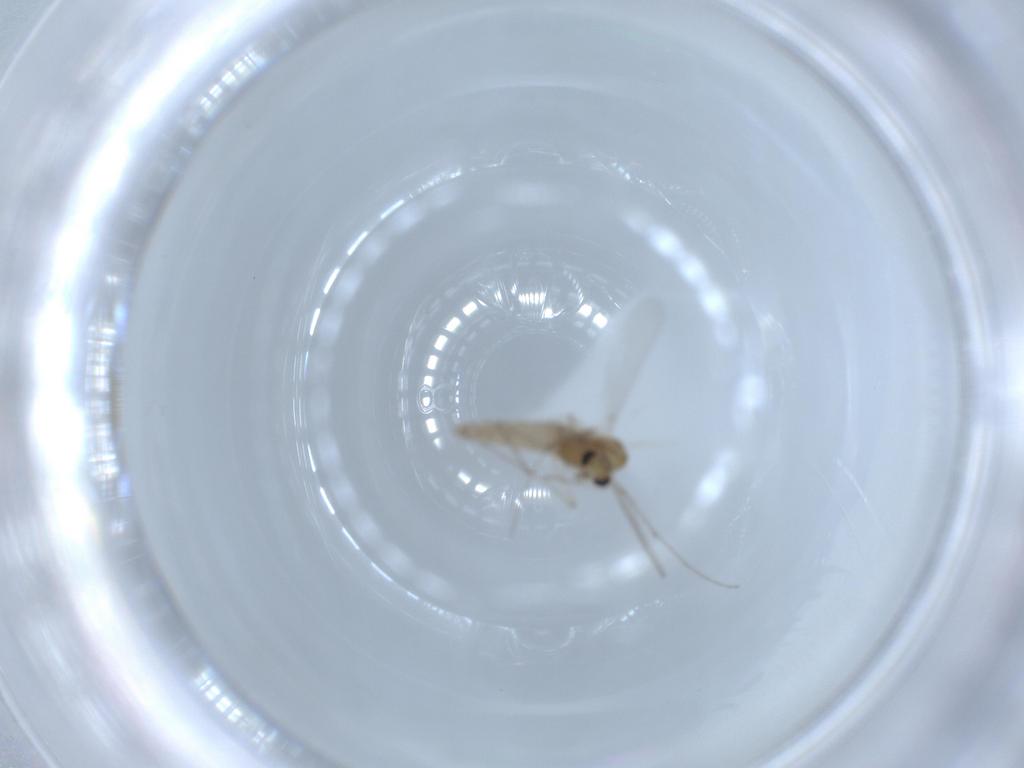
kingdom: Animalia
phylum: Arthropoda
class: Insecta
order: Diptera
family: Chironomidae
